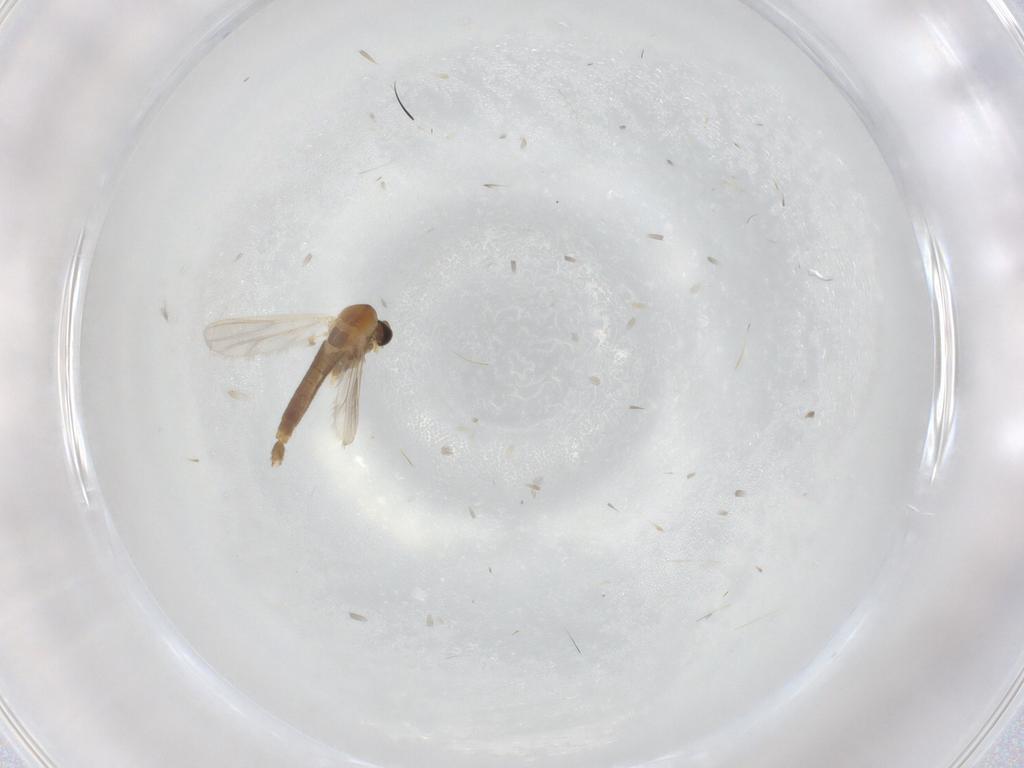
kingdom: Animalia
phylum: Arthropoda
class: Insecta
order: Diptera
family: Chironomidae
